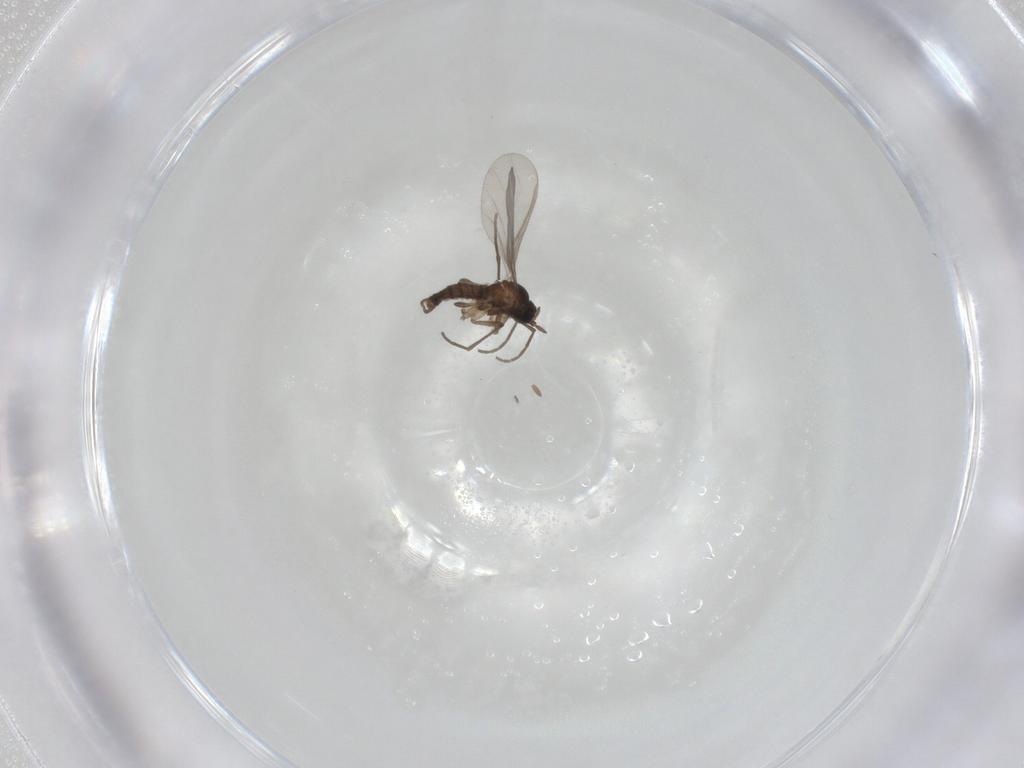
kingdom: Animalia
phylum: Arthropoda
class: Insecta
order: Diptera
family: Sciaridae
